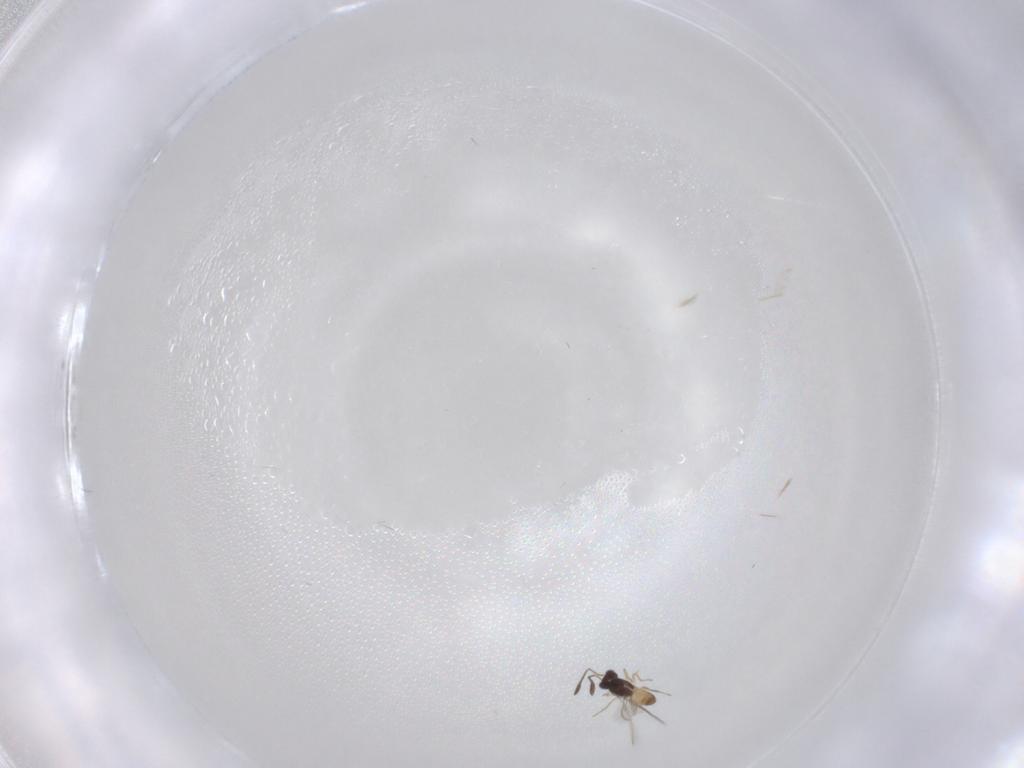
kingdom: Animalia
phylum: Arthropoda
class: Insecta
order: Hymenoptera
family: Mymaridae
